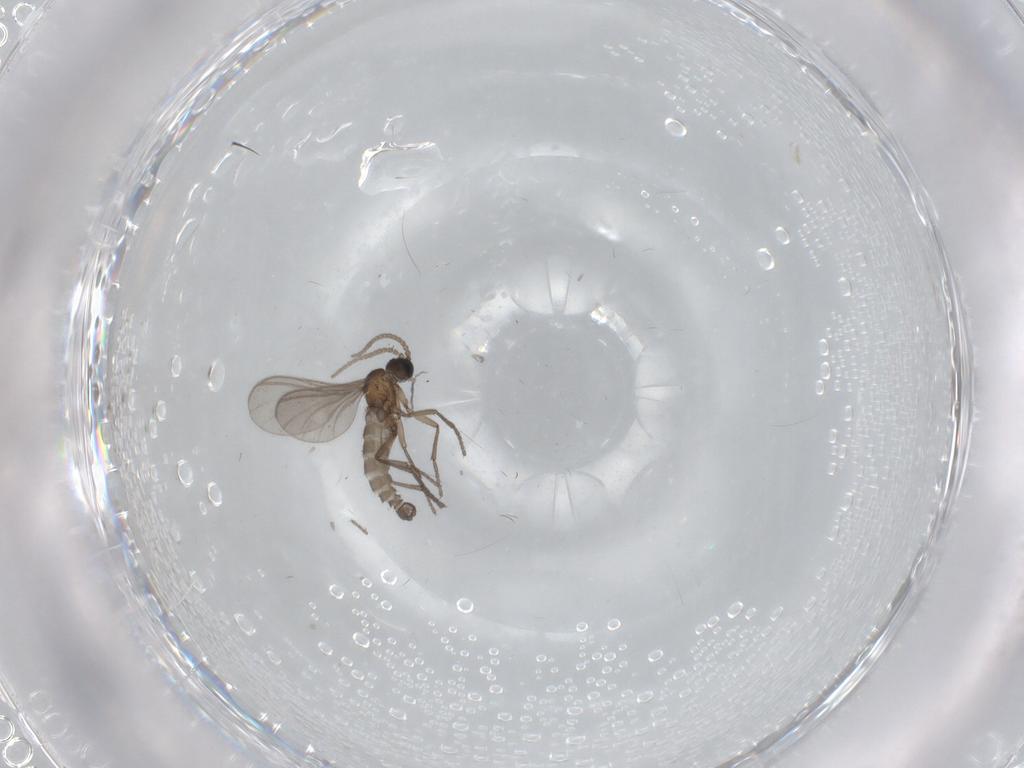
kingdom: Animalia
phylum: Arthropoda
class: Insecta
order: Diptera
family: Sciaridae
